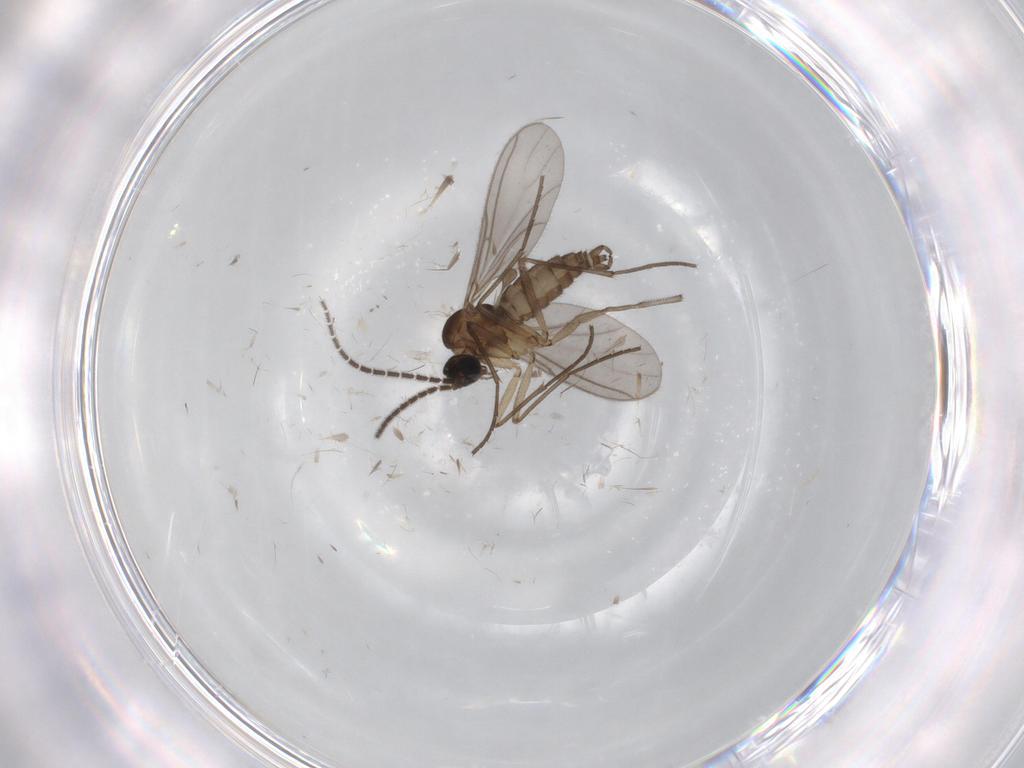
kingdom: Animalia
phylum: Arthropoda
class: Insecta
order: Diptera
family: Sciaridae
